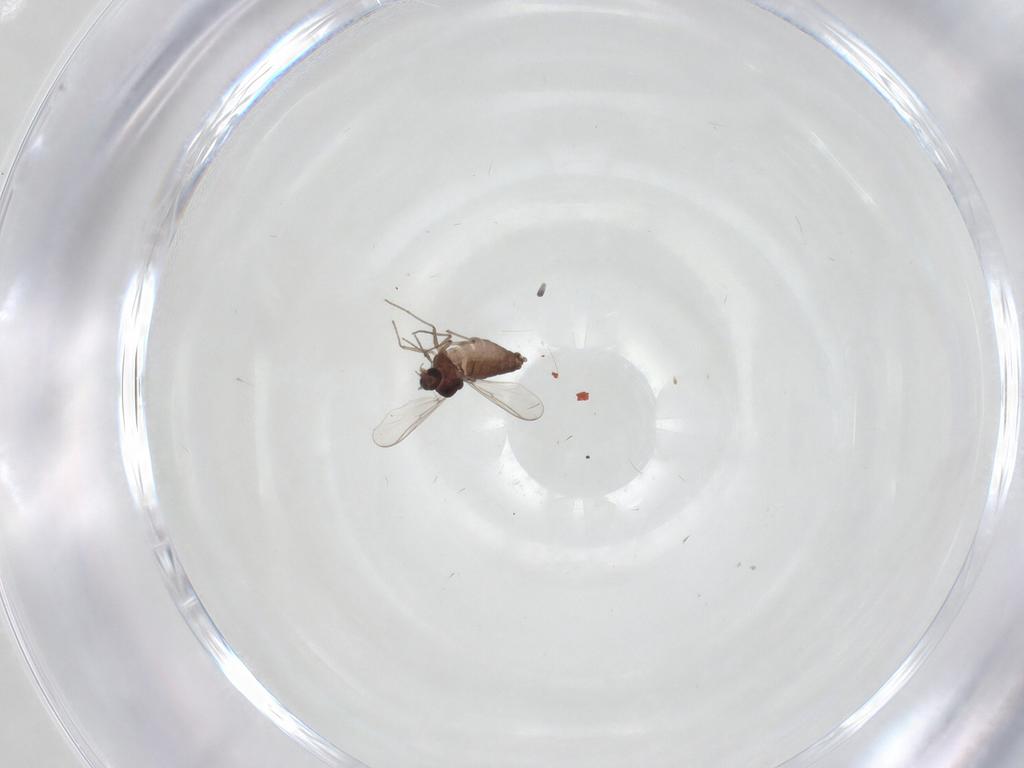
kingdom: Animalia
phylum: Arthropoda
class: Insecta
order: Diptera
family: Chironomidae
